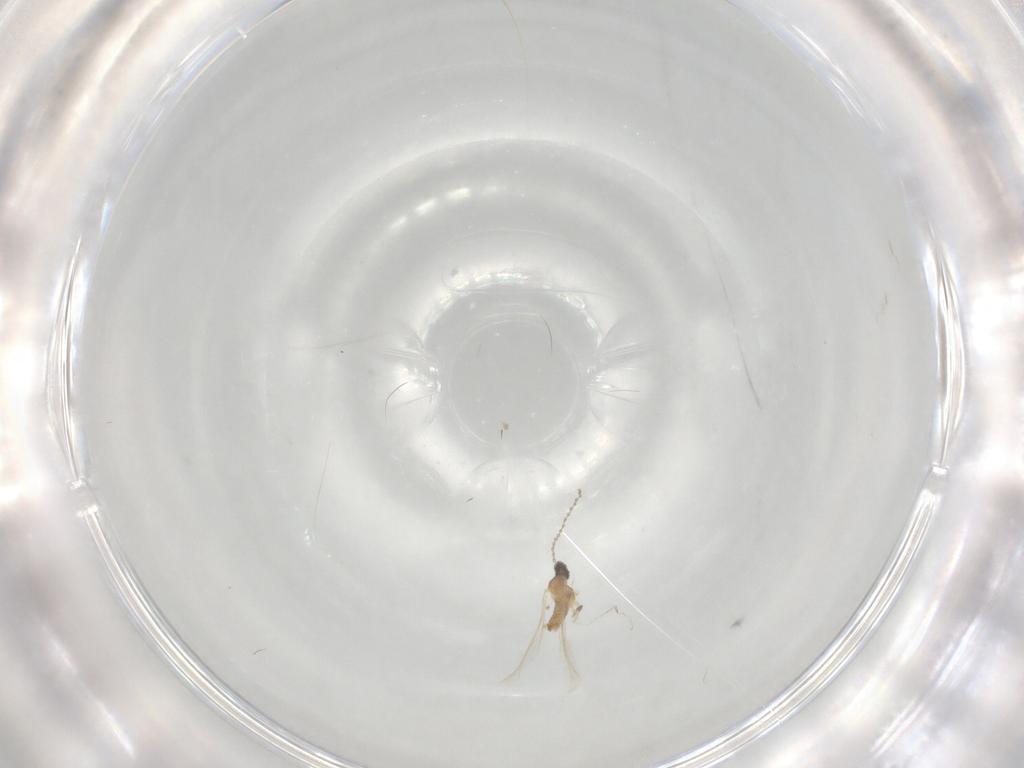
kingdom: Animalia
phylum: Arthropoda
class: Insecta
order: Diptera
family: Cecidomyiidae
